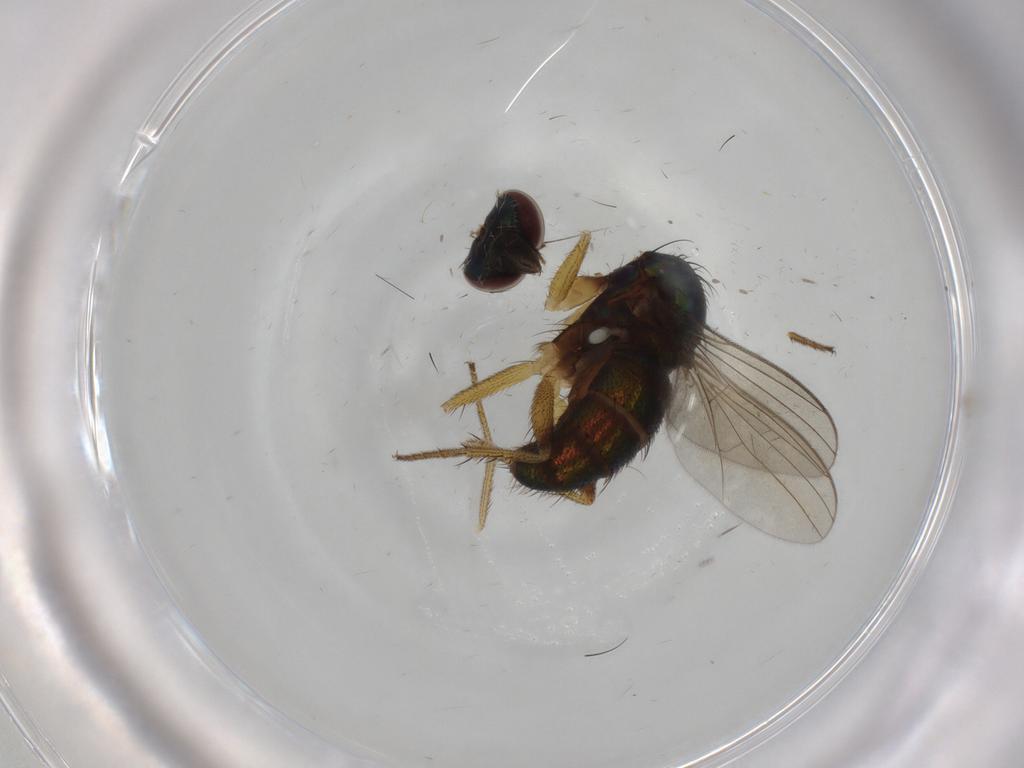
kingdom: Animalia
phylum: Arthropoda
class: Insecta
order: Diptera
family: Dolichopodidae
